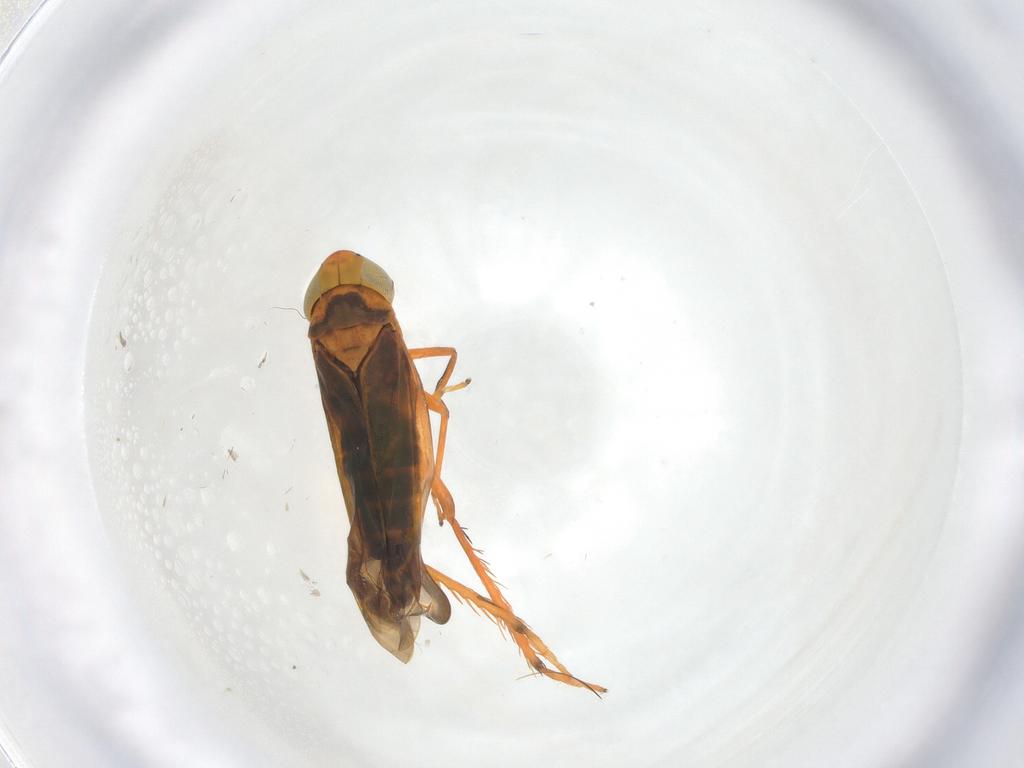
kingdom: Animalia
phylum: Arthropoda
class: Insecta
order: Hemiptera
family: Cicadellidae
